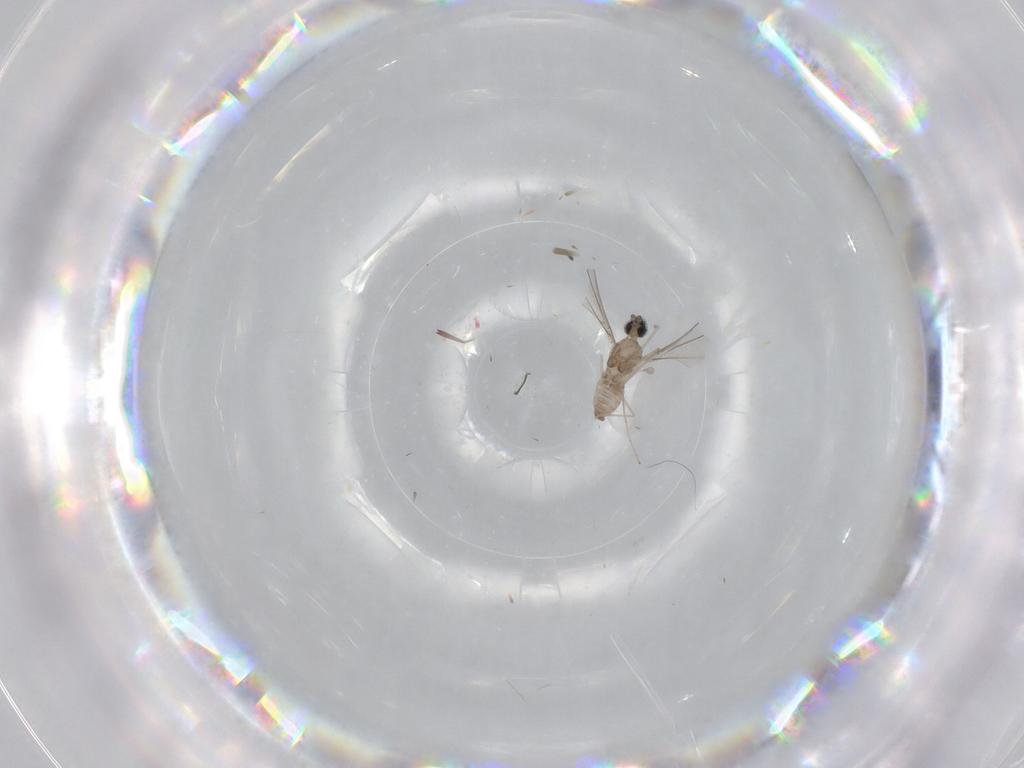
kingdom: Animalia
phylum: Arthropoda
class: Insecta
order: Diptera
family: Cecidomyiidae
